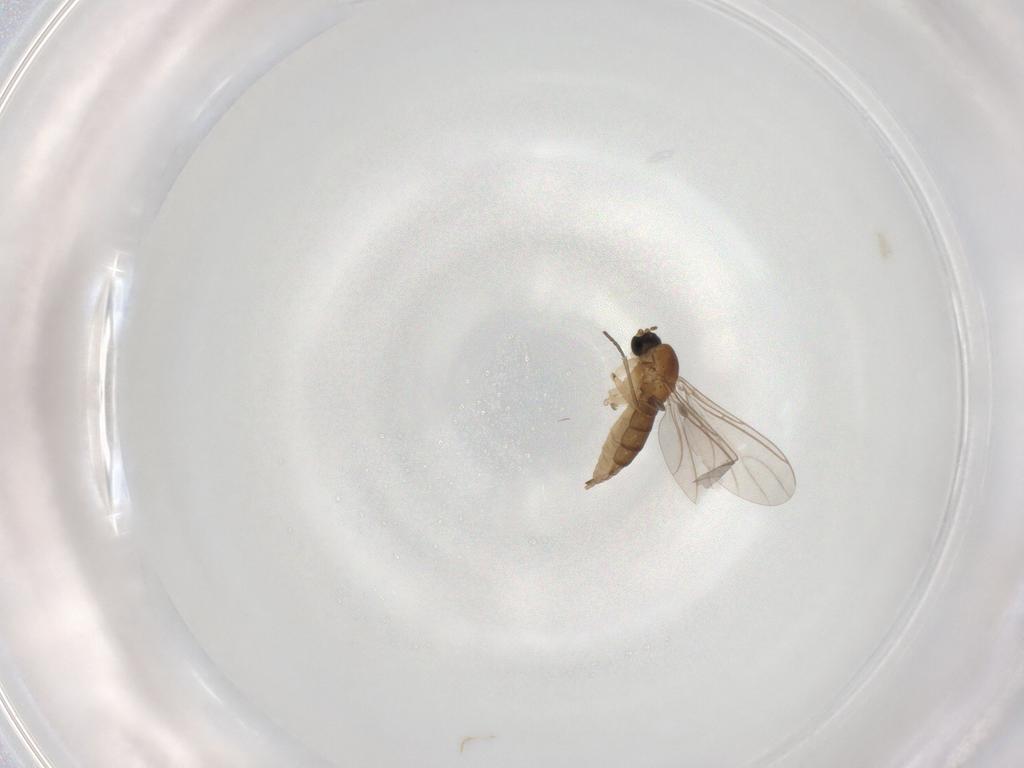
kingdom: Animalia
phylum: Arthropoda
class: Insecta
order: Diptera
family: Sciaridae
